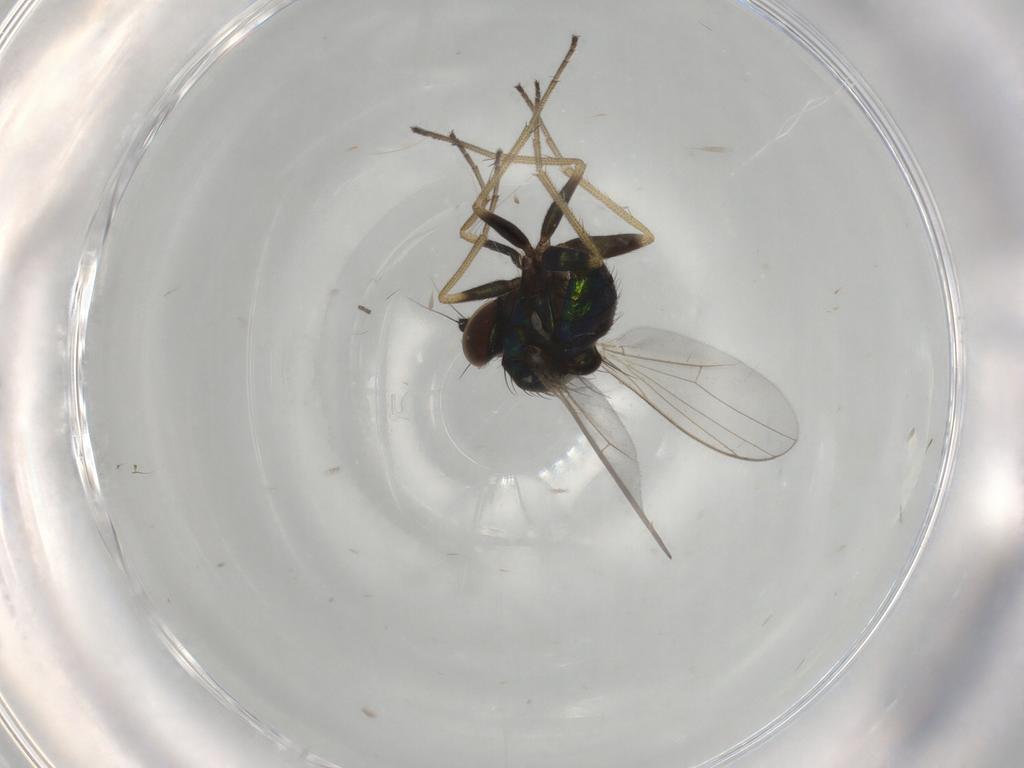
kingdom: Animalia
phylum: Arthropoda
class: Insecta
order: Diptera
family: Dolichopodidae
